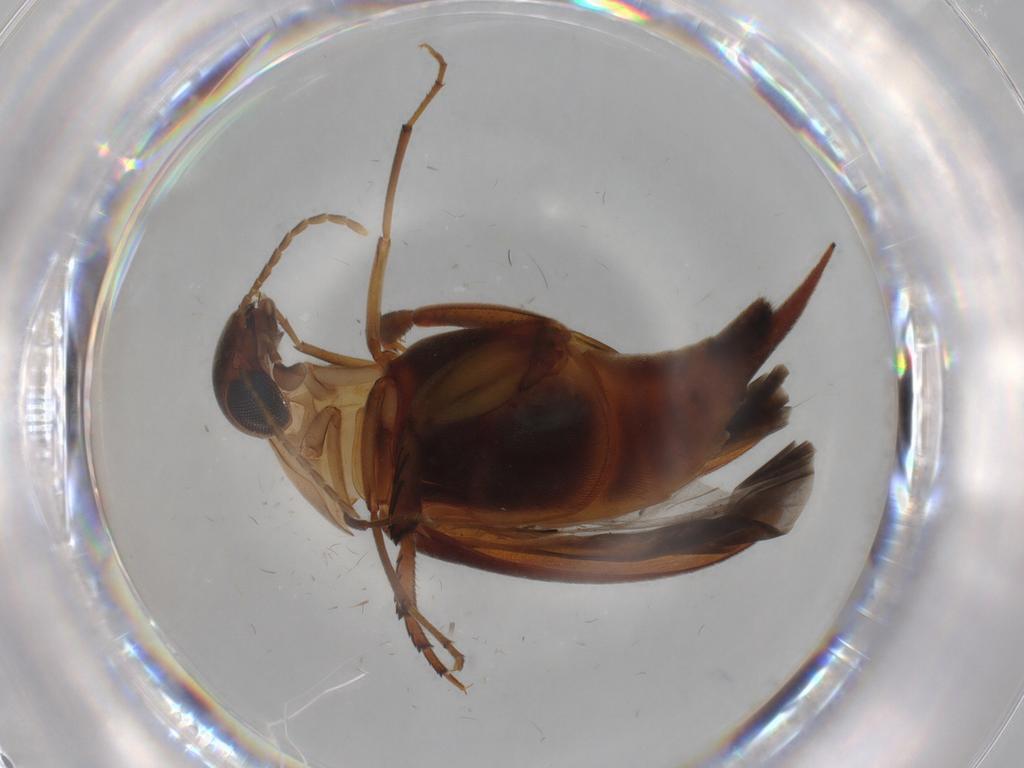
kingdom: Animalia
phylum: Arthropoda
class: Insecta
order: Coleoptera
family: Mordellidae
